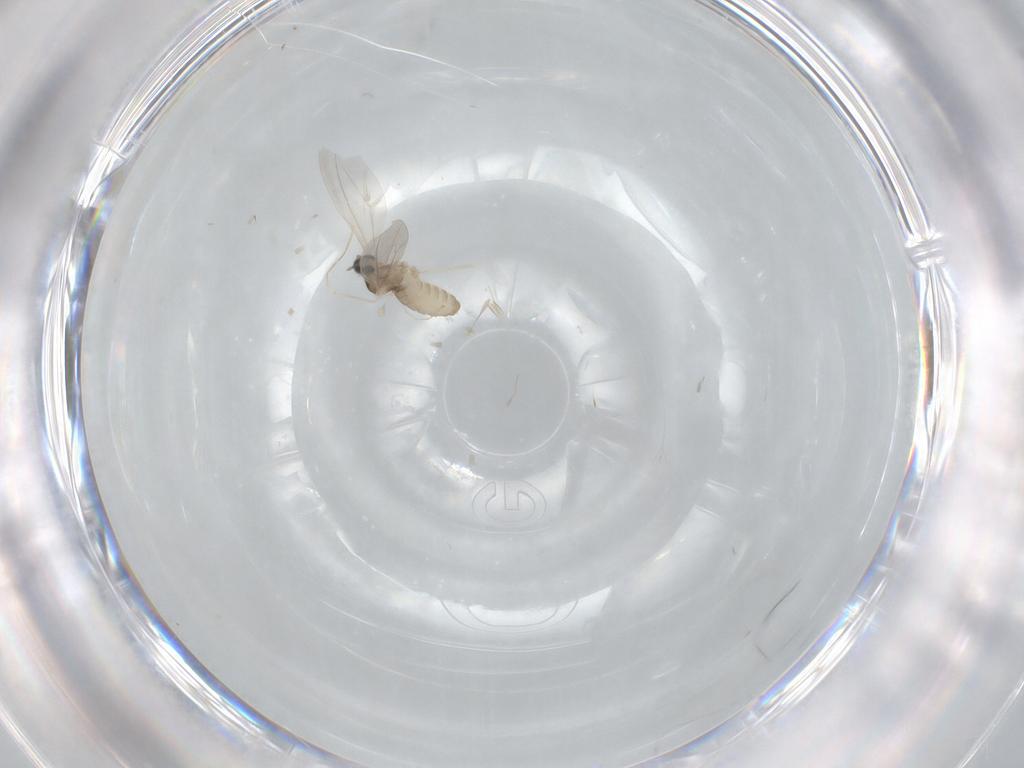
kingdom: Animalia
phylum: Arthropoda
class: Insecta
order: Diptera
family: Cecidomyiidae
